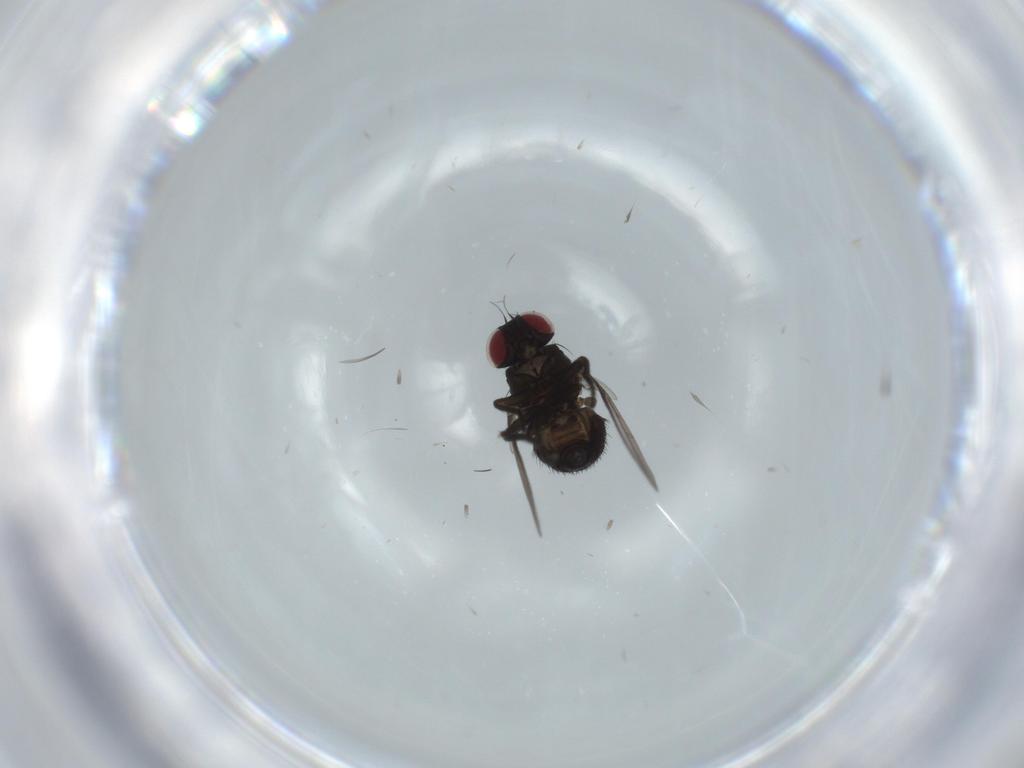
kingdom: Animalia
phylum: Arthropoda
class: Insecta
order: Diptera
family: Agromyzidae
